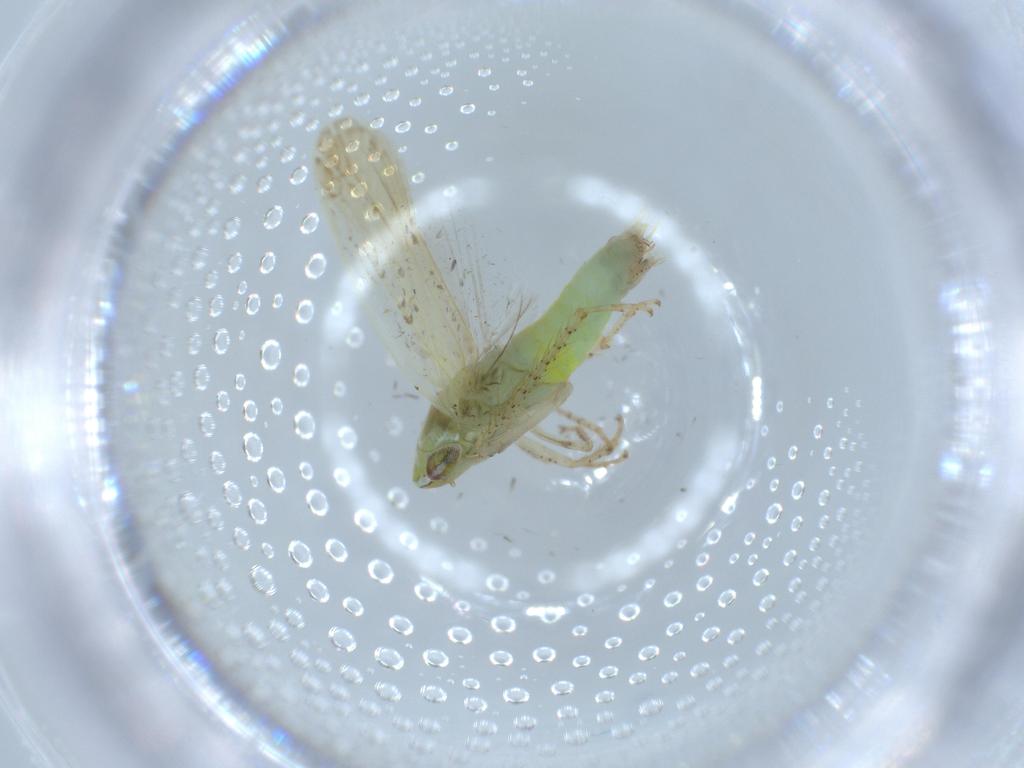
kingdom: Animalia
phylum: Arthropoda
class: Insecta
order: Hemiptera
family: Cicadellidae
